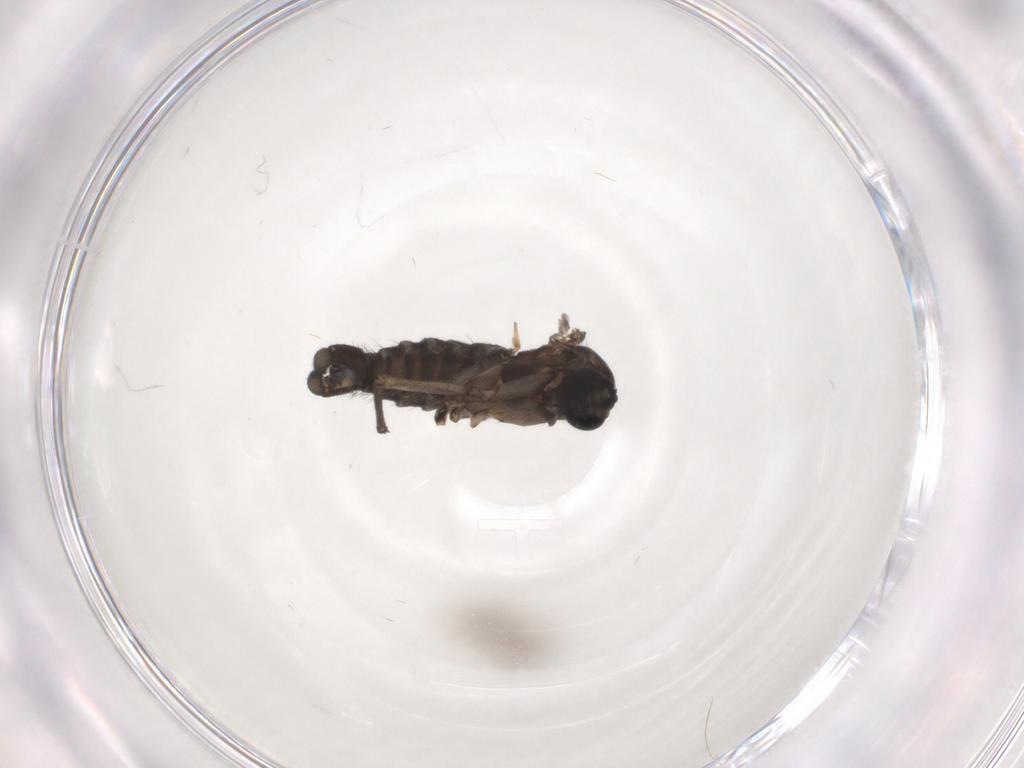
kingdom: Animalia
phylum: Arthropoda
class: Insecta
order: Diptera
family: Sciaridae
